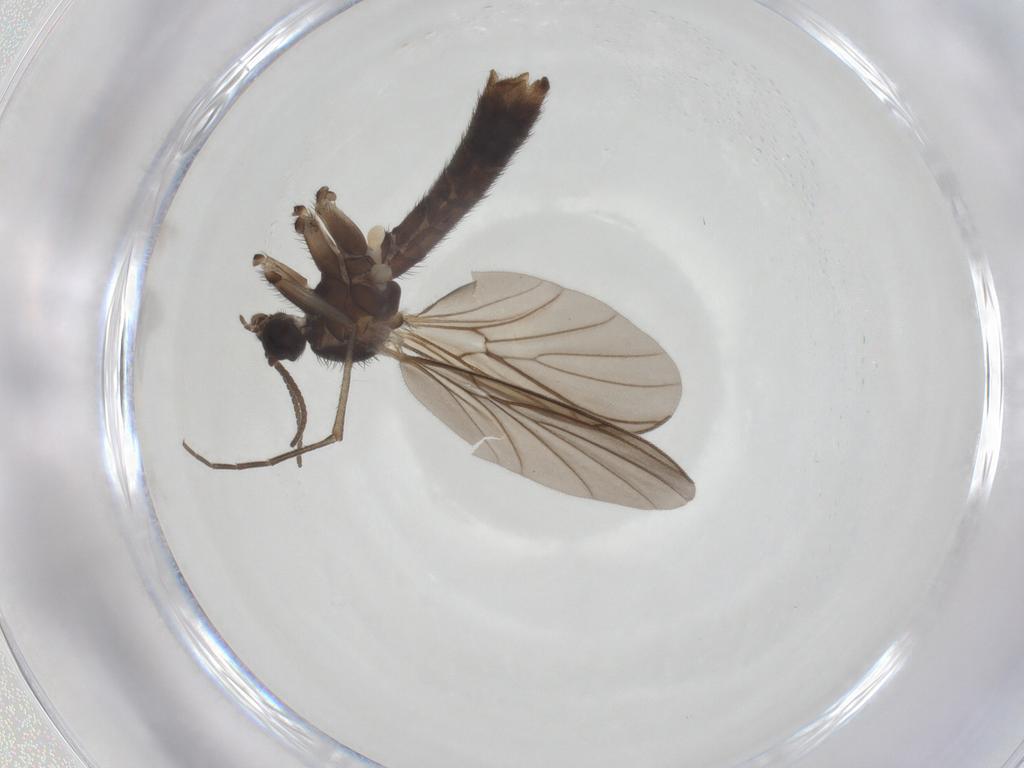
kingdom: Animalia
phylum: Arthropoda
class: Insecta
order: Diptera
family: Keroplatidae
